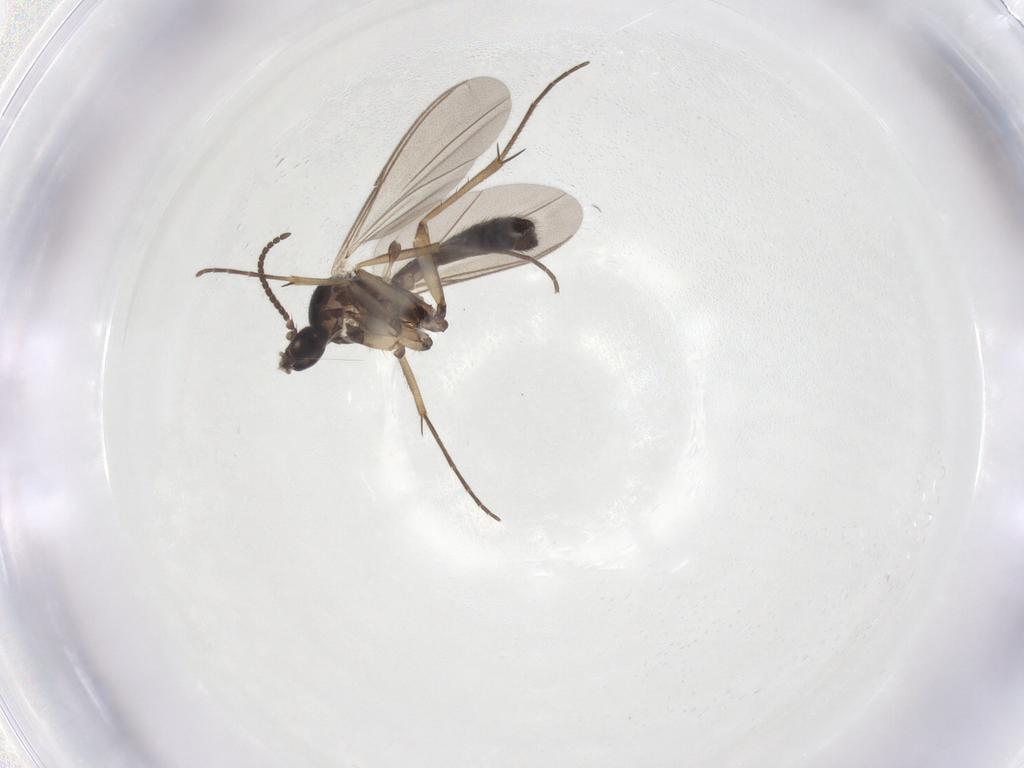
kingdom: Animalia
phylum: Arthropoda
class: Insecta
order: Diptera
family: Mycetophilidae
